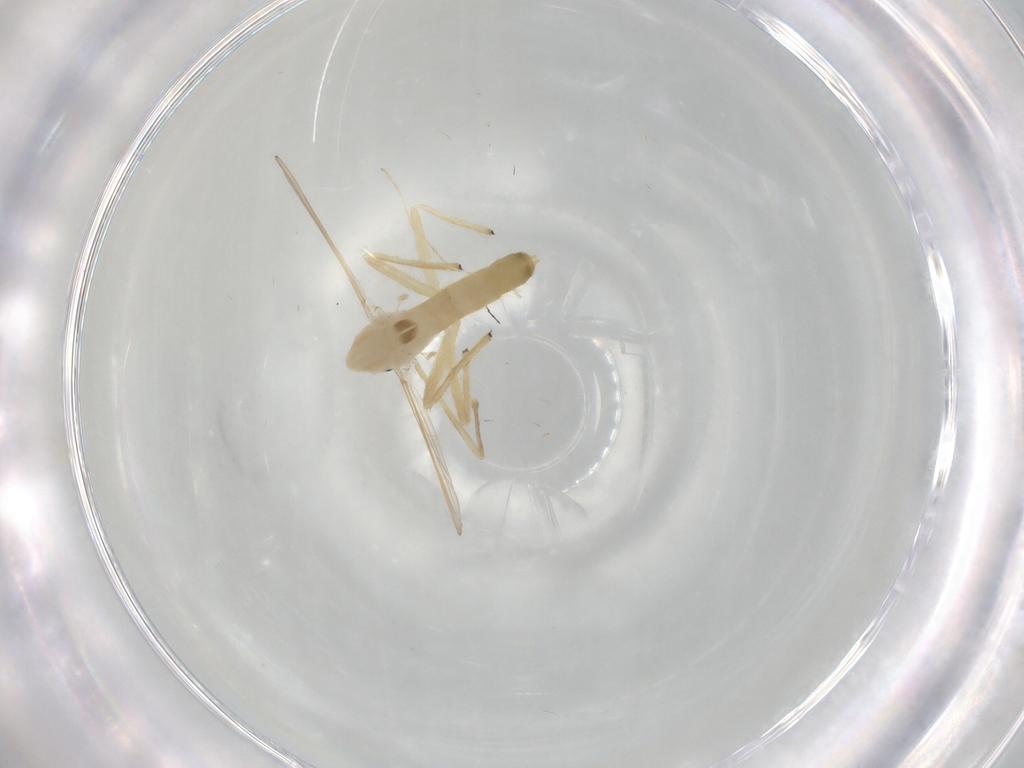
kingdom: Animalia
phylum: Arthropoda
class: Insecta
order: Diptera
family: Chironomidae
